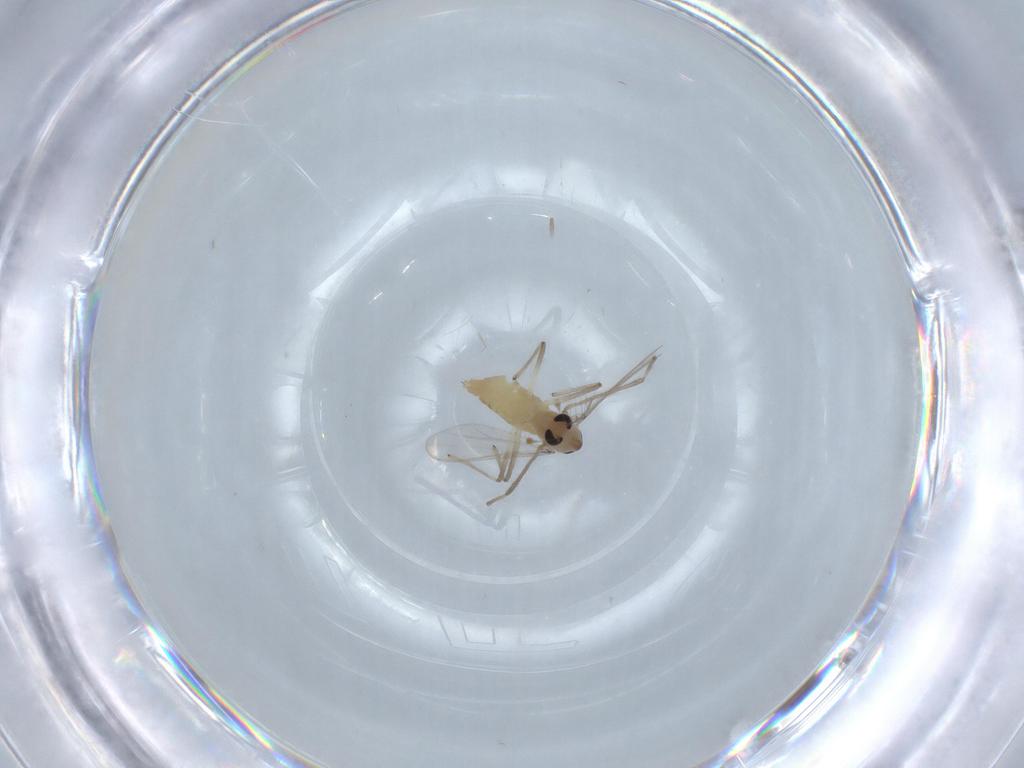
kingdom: Animalia
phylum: Arthropoda
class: Insecta
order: Diptera
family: Chironomidae
